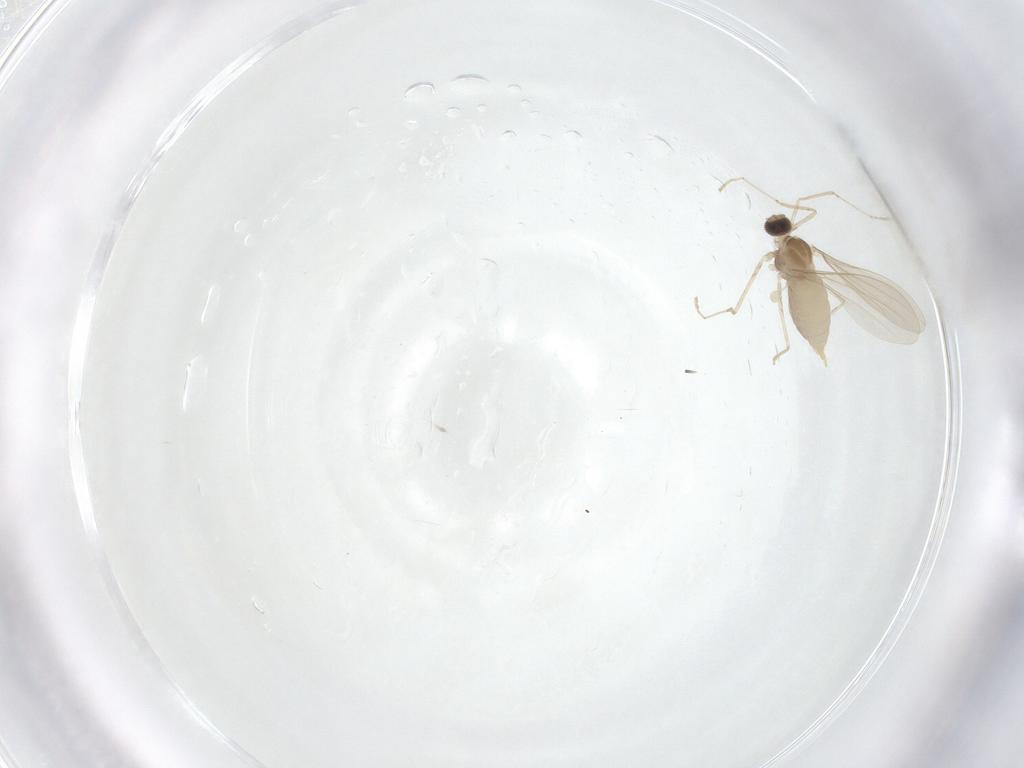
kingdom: Animalia
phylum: Arthropoda
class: Insecta
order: Diptera
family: Cecidomyiidae
